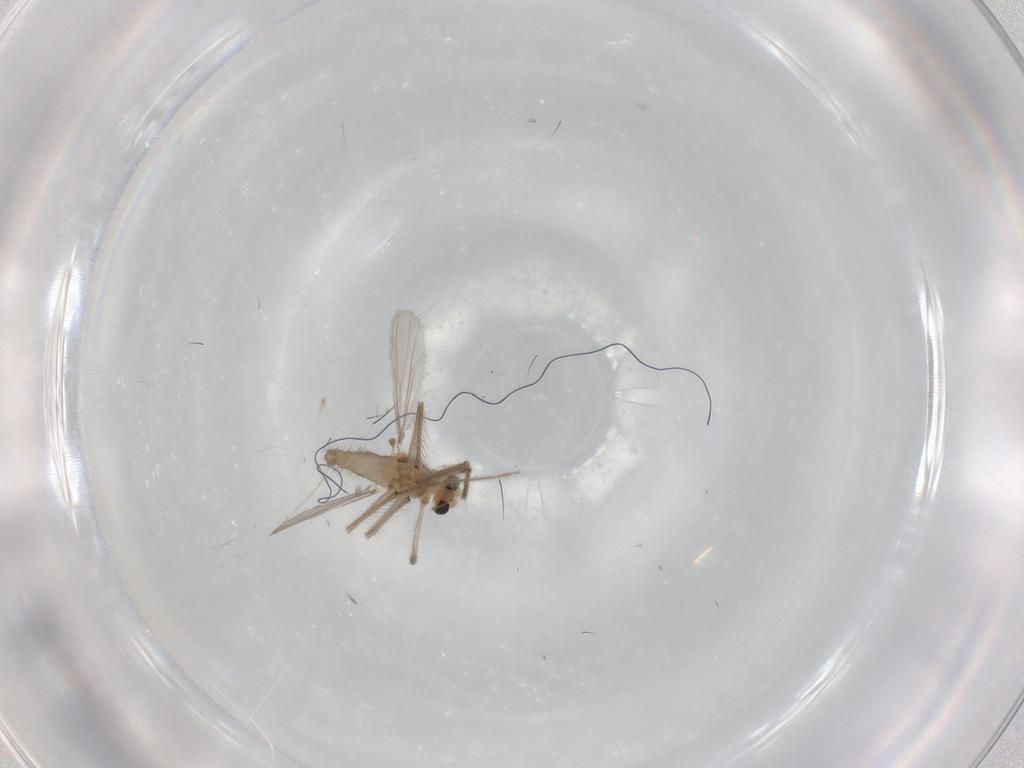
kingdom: Animalia
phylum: Arthropoda
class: Insecta
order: Diptera
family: Chironomidae
